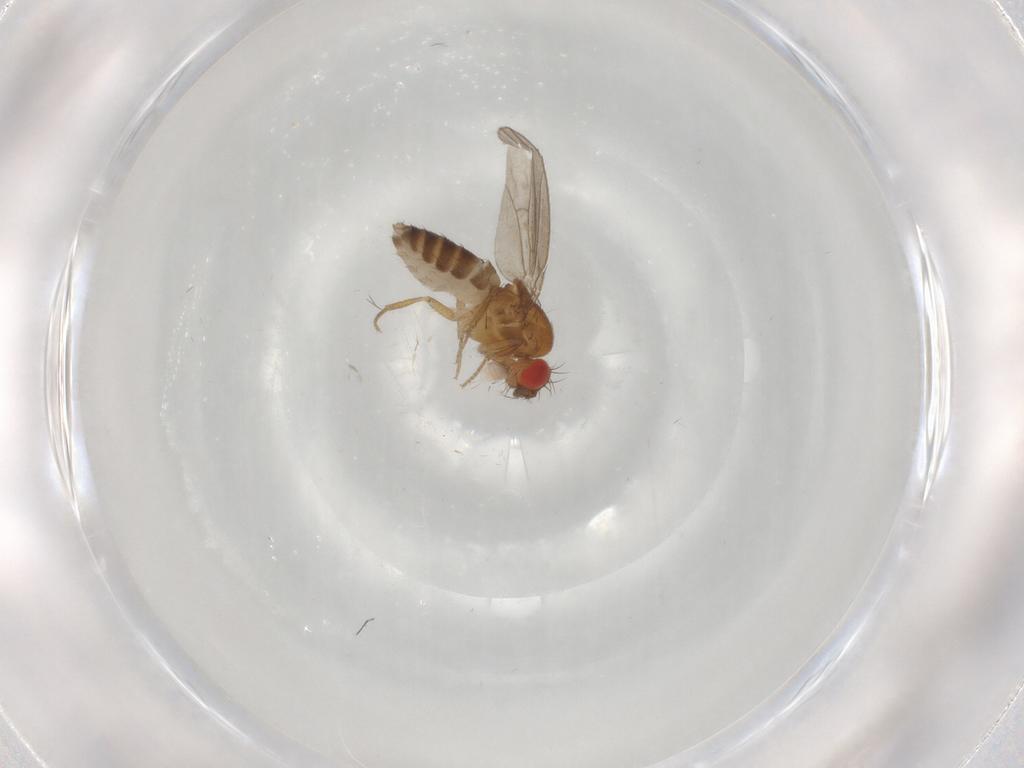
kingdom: Animalia
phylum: Arthropoda
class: Insecta
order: Diptera
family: Drosophilidae
